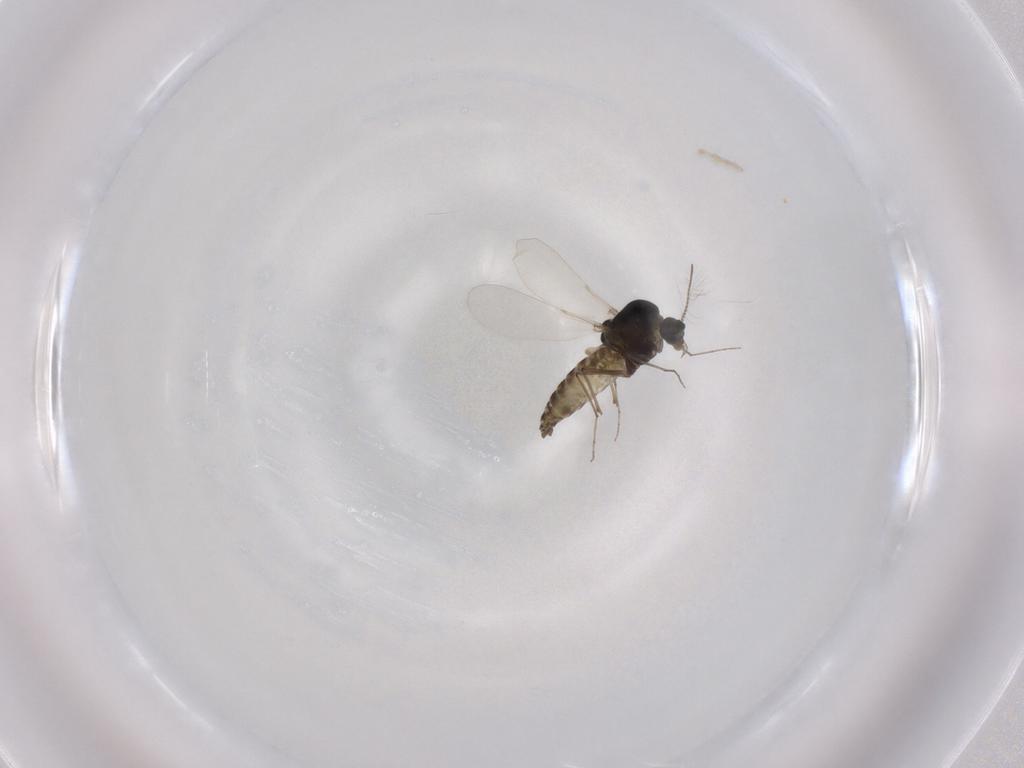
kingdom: Animalia
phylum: Arthropoda
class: Insecta
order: Diptera
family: Chironomidae
